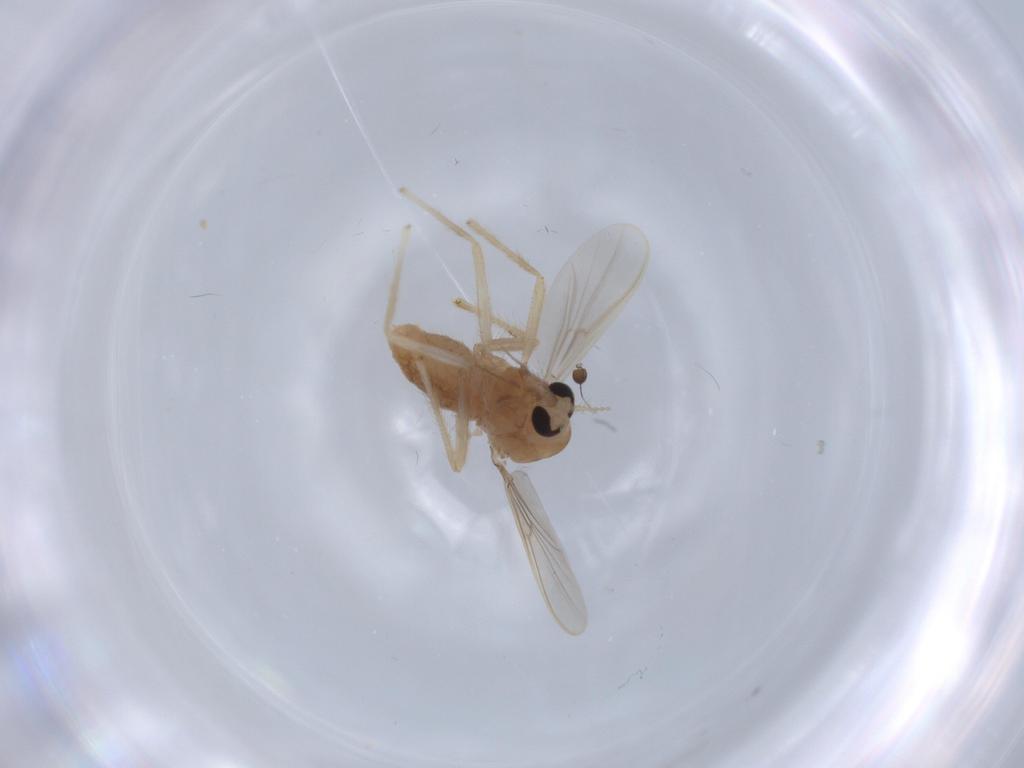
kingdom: Animalia
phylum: Arthropoda
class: Insecta
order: Diptera
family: Chironomidae
